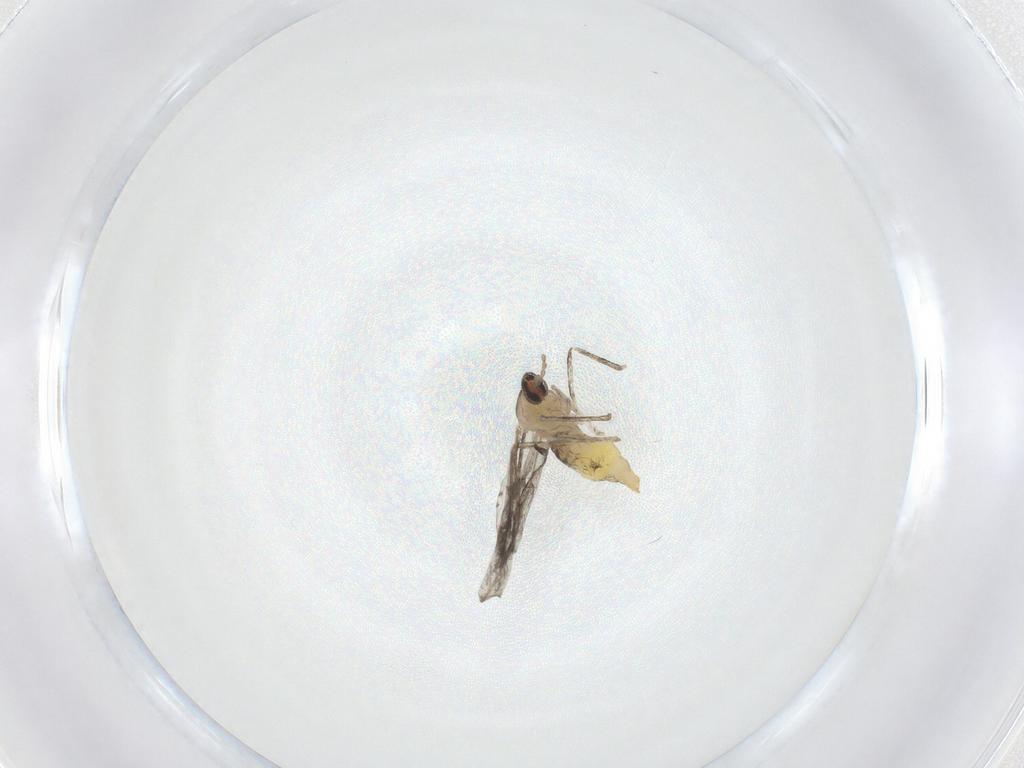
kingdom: Animalia
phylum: Arthropoda
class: Insecta
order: Diptera
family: Cecidomyiidae
